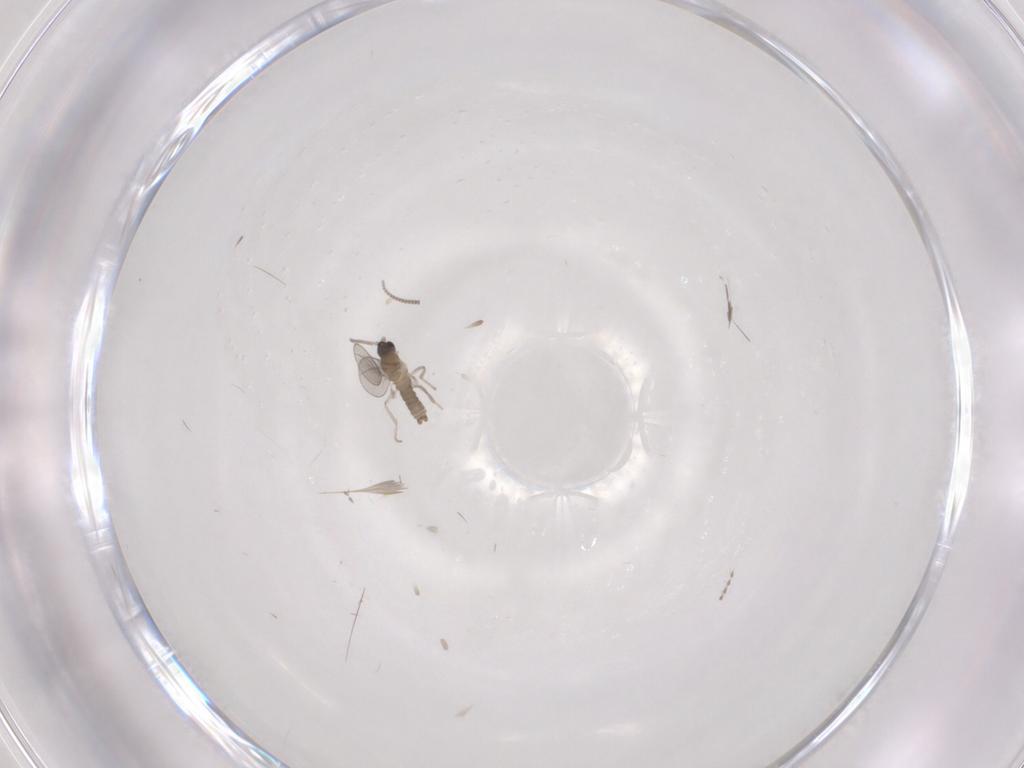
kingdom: Animalia
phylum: Arthropoda
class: Insecta
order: Diptera
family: Cecidomyiidae
